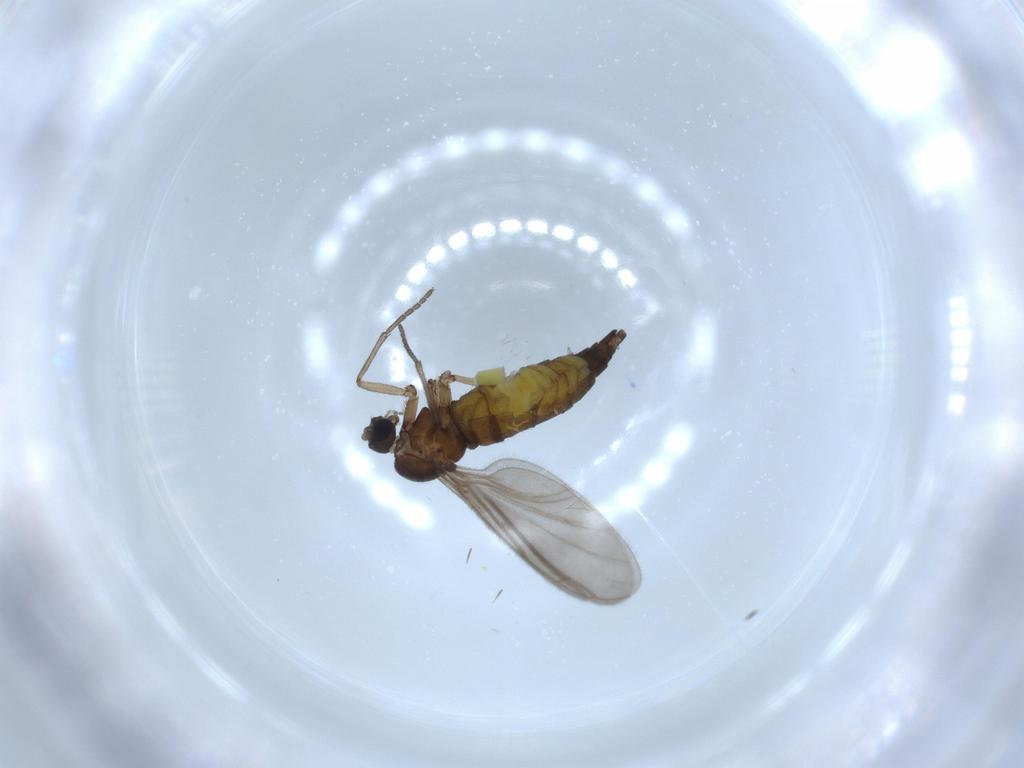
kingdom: Animalia
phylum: Arthropoda
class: Insecta
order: Diptera
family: Sciaridae
